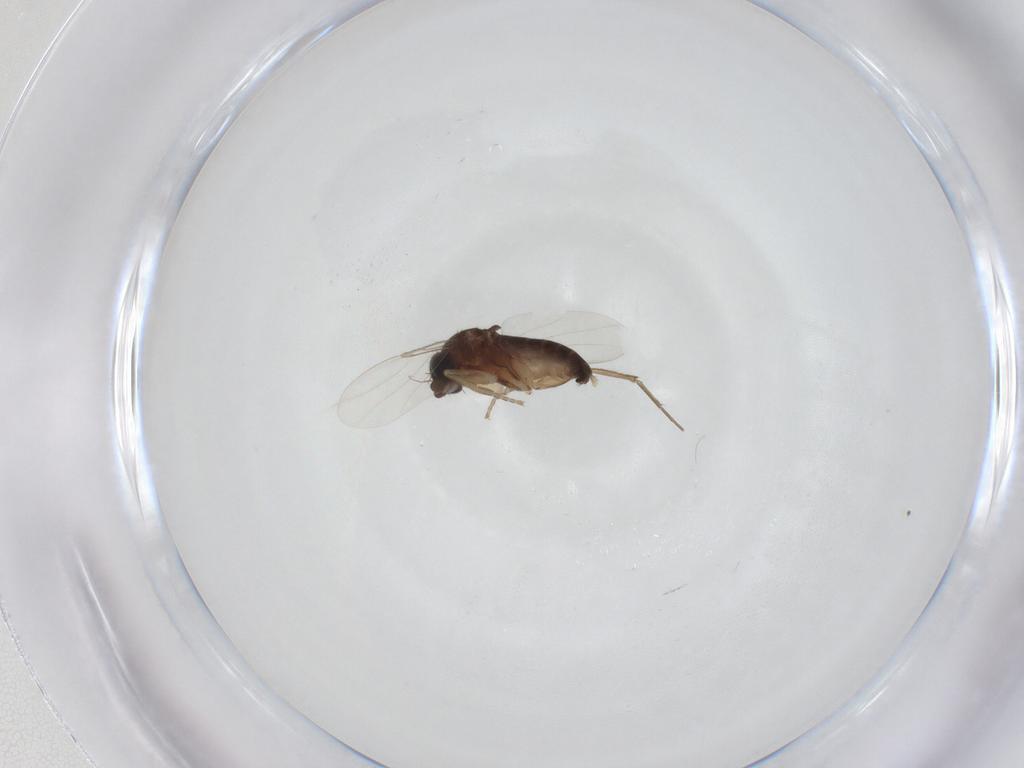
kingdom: Animalia
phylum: Arthropoda
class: Insecta
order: Diptera
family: Phoridae
